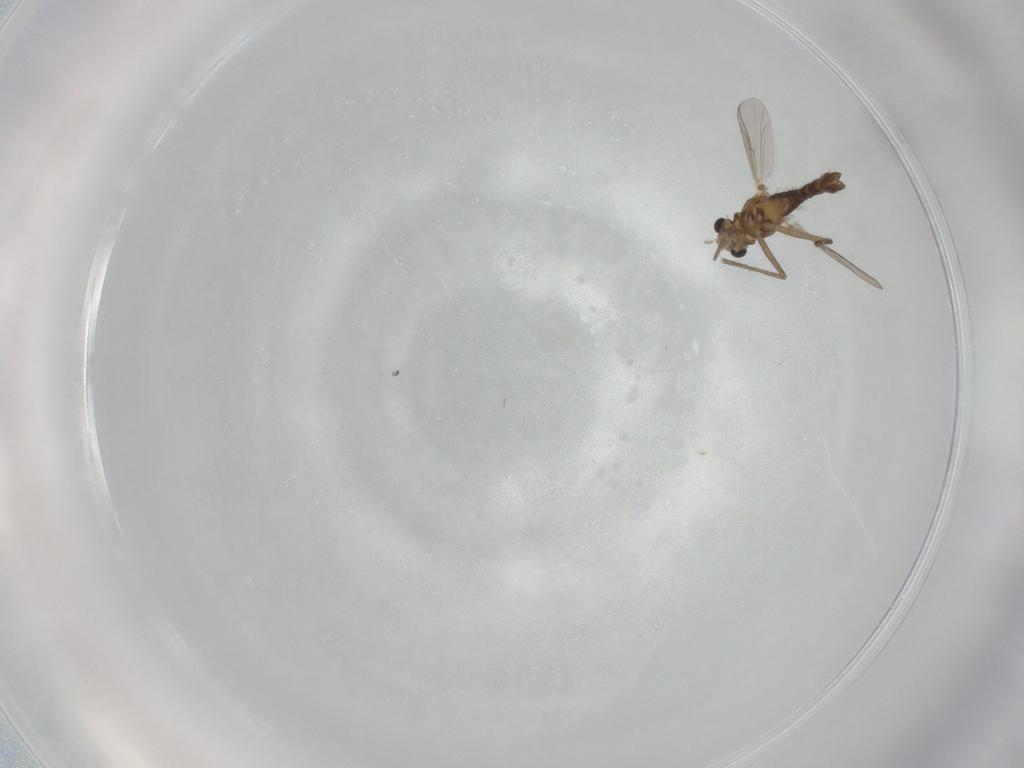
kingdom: Animalia
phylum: Arthropoda
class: Insecta
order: Diptera
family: Chironomidae
